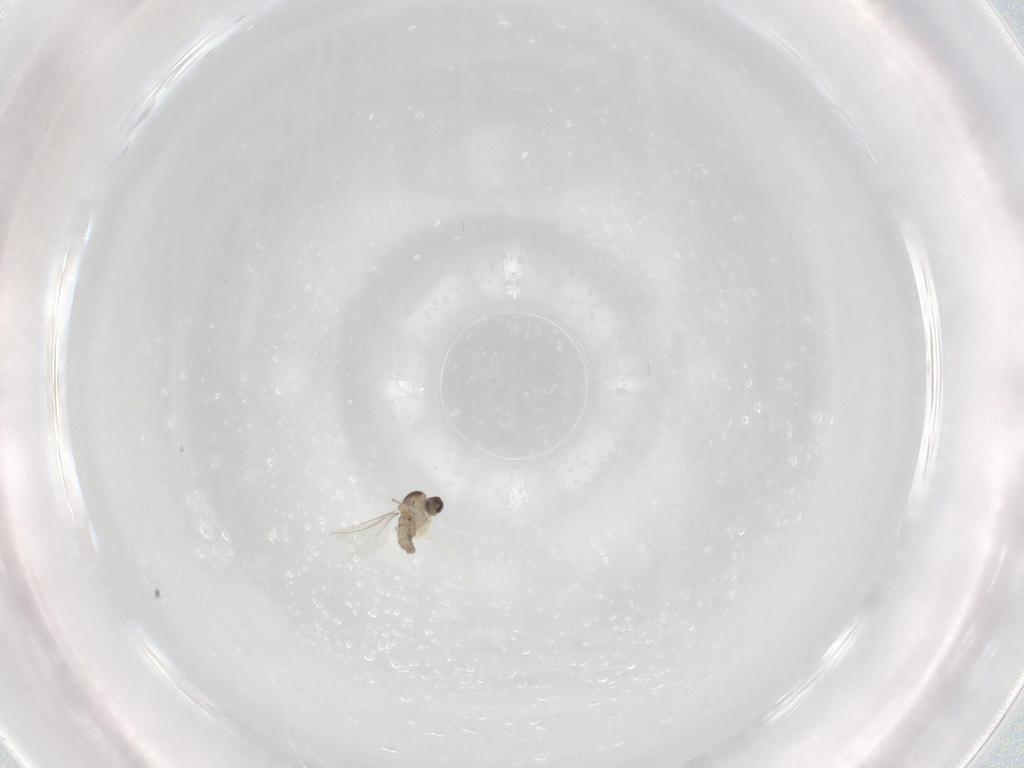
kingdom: Animalia
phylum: Arthropoda
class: Insecta
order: Diptera
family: Cecidomyiidae
